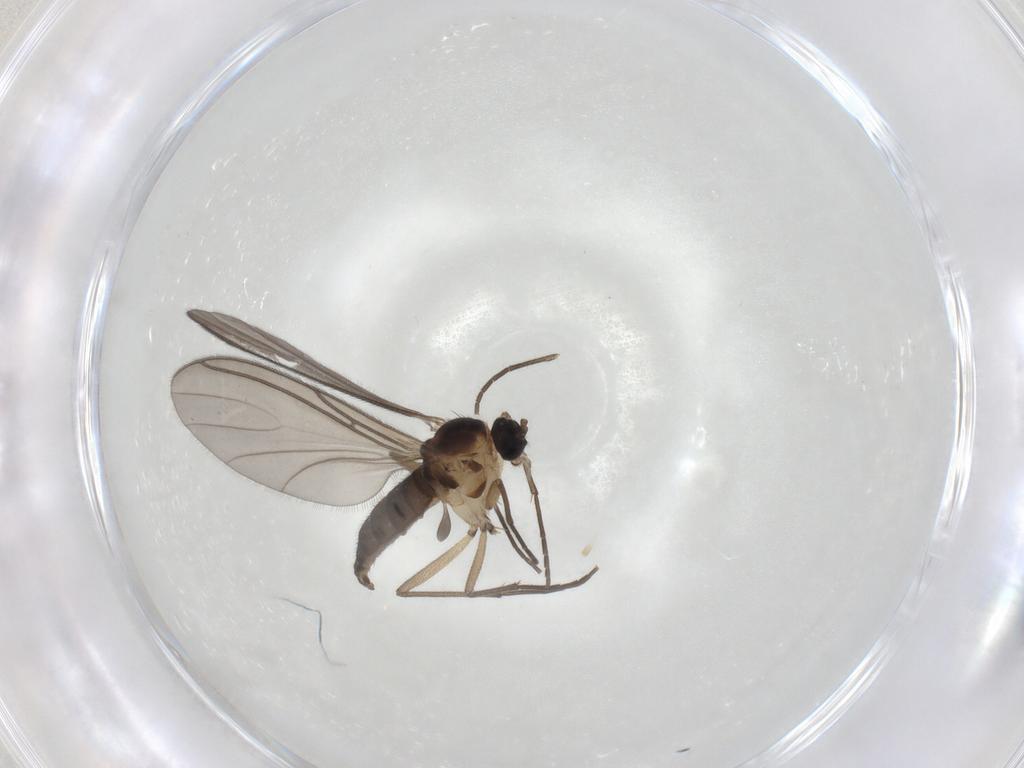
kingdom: Animalia
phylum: Arthropoda
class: Insecta
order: Diptera
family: Sciaridae
